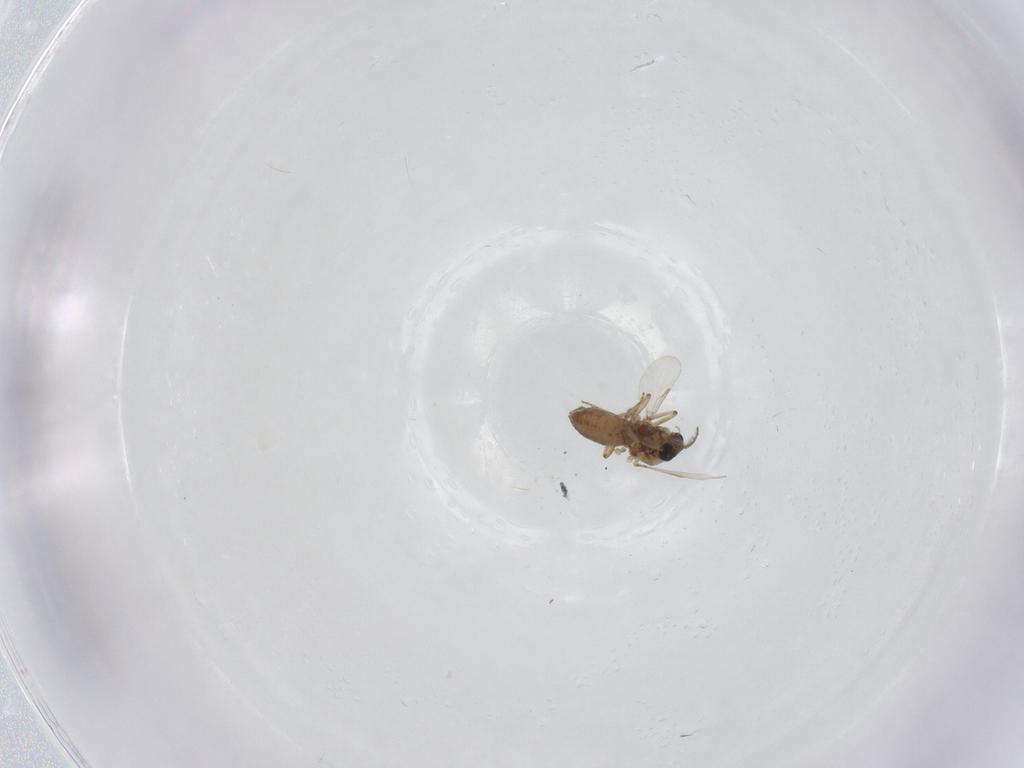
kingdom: Animalia
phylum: Arthropoda
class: Insecta
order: Diptera
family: Ceratopogonidae
